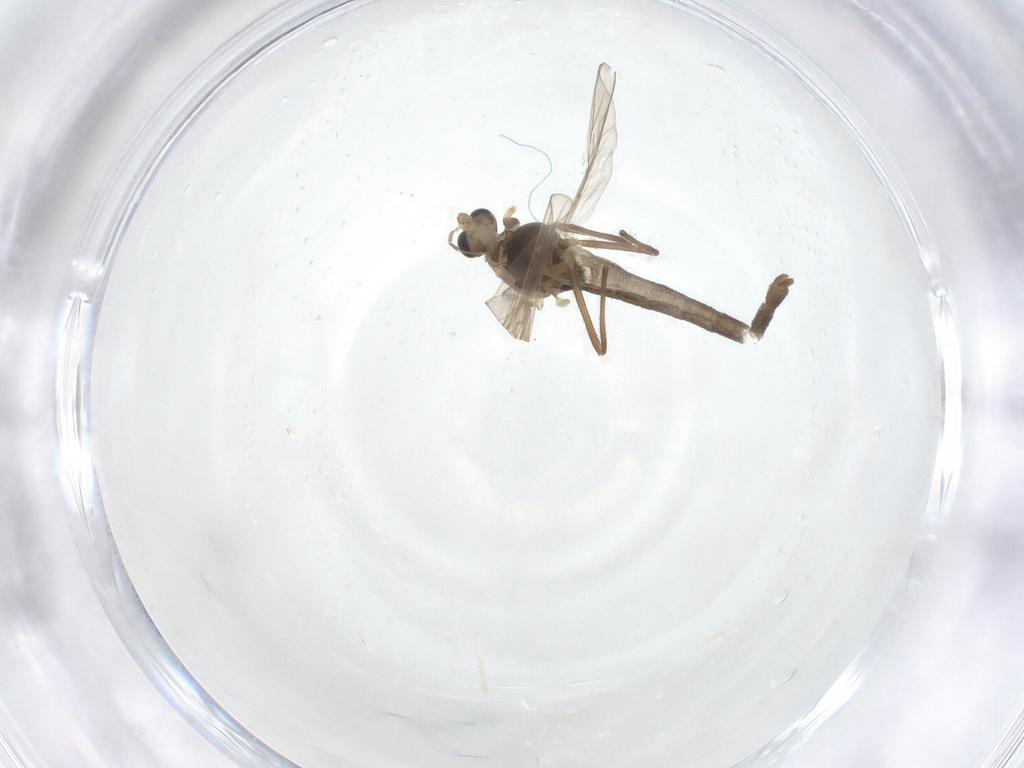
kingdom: Animalia
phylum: Arthropoda
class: Insecta
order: Diptera
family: Chironomidae
